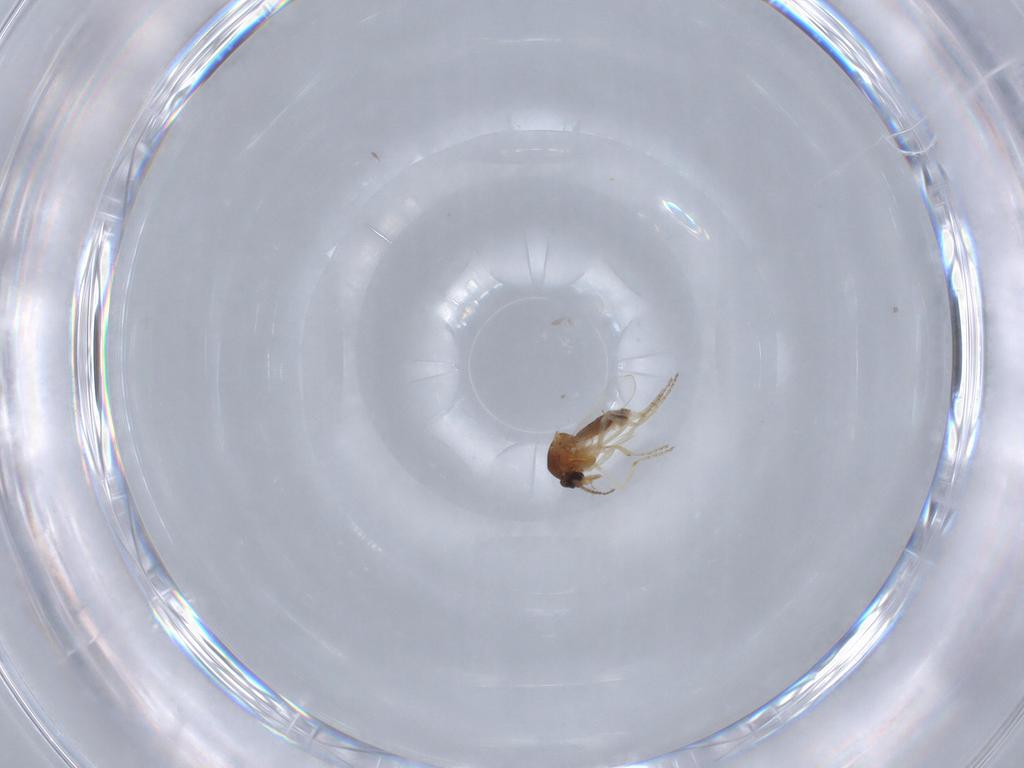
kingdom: Animalia
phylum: Arthropoda
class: Insecta
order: Diptera
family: Ceratopogonidae
